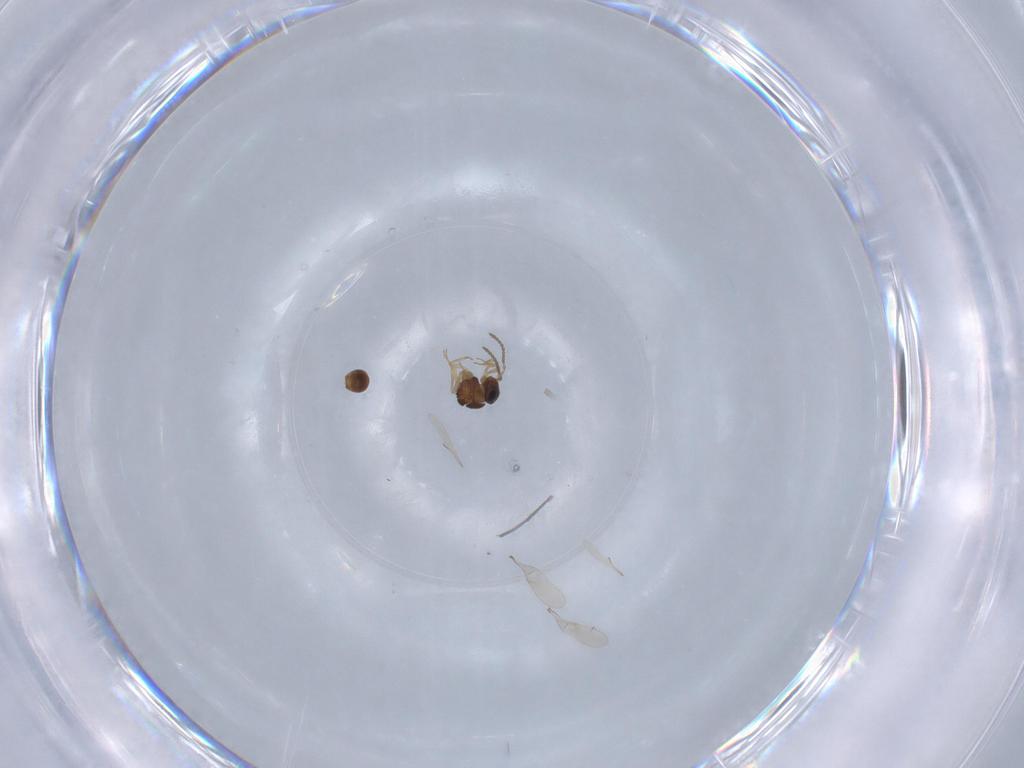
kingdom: Animalia
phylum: Arthropoda
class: Insecta
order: Hymenoptera
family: Scelionidae
